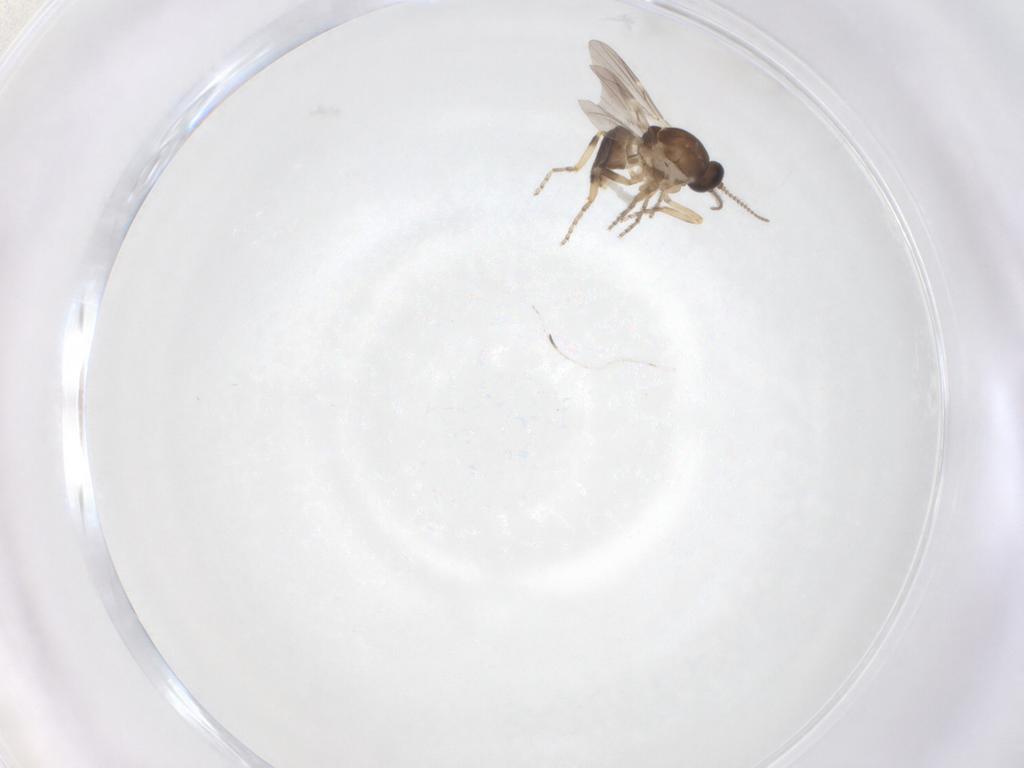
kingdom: Animalia
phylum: Arthropoda
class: Insecta
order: Diptera
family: Ceratopogonidae
